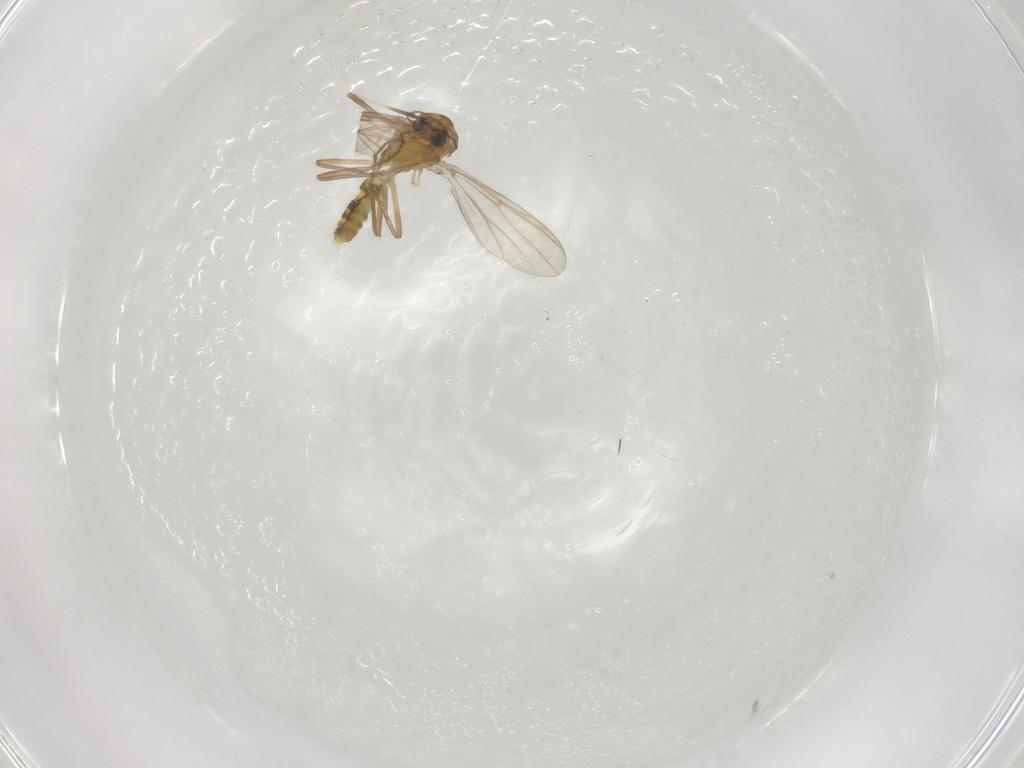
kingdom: Animalia
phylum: Arthropoda
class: Insecta
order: Diptera
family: Chironomidae
